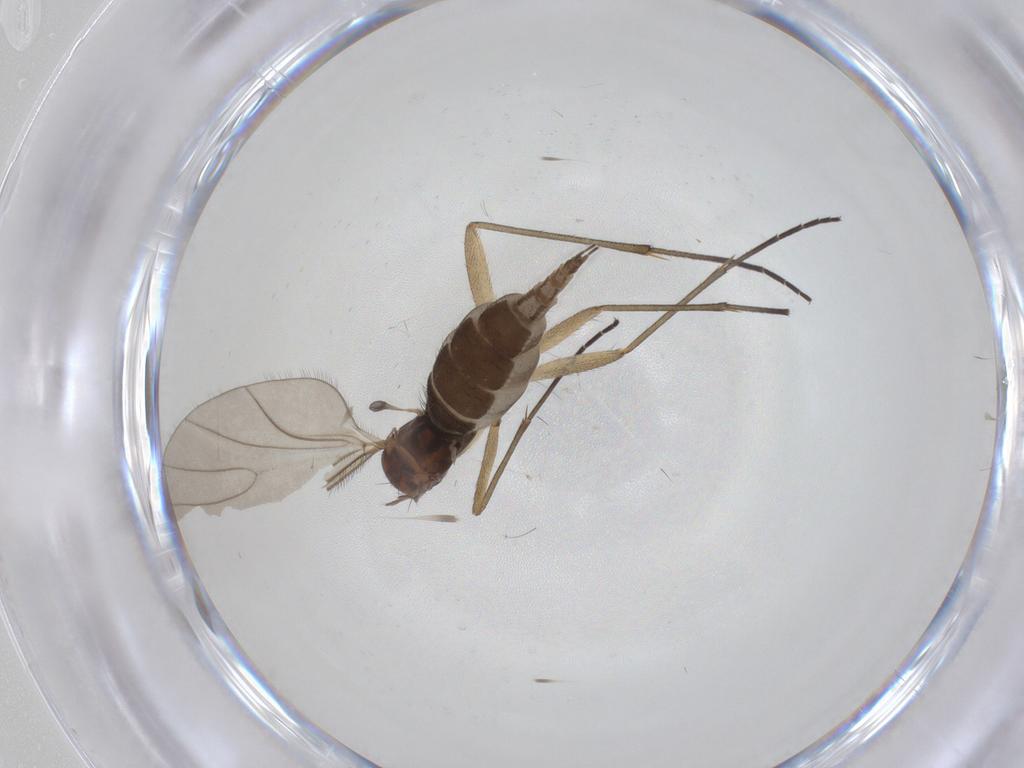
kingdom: Animalia
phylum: Arthropoda
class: Insecta
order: Diptera
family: Sciaridae
